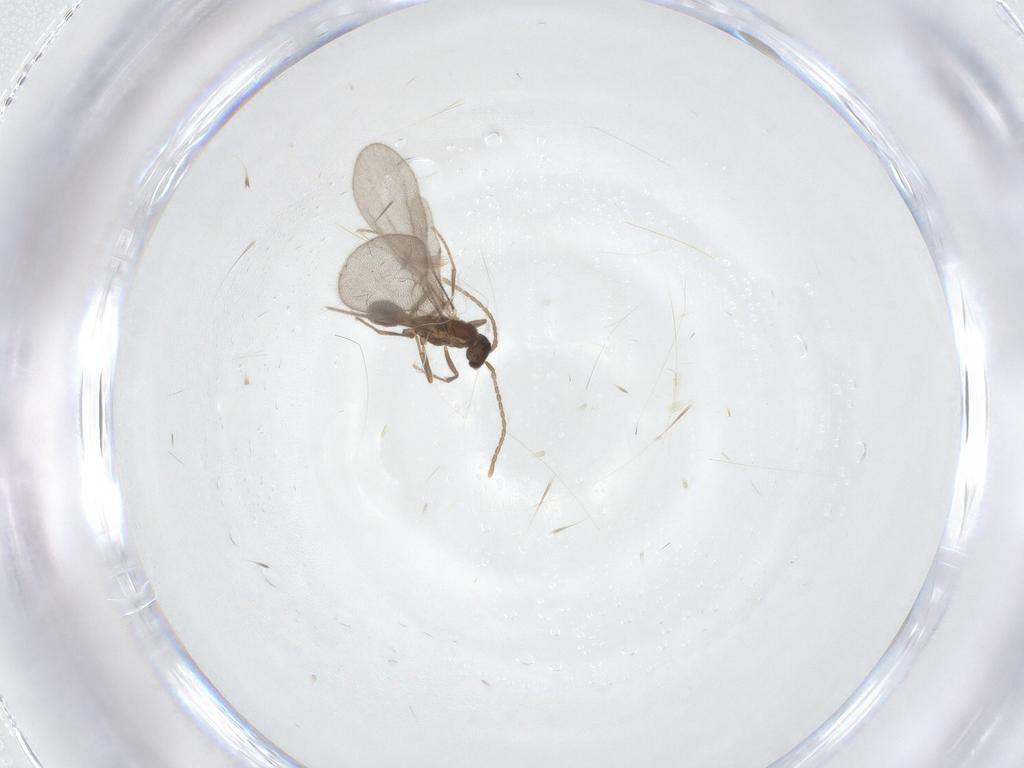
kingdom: Animalia
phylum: Arthropoda
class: Insecta
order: Hymenoptera
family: Formicidae
